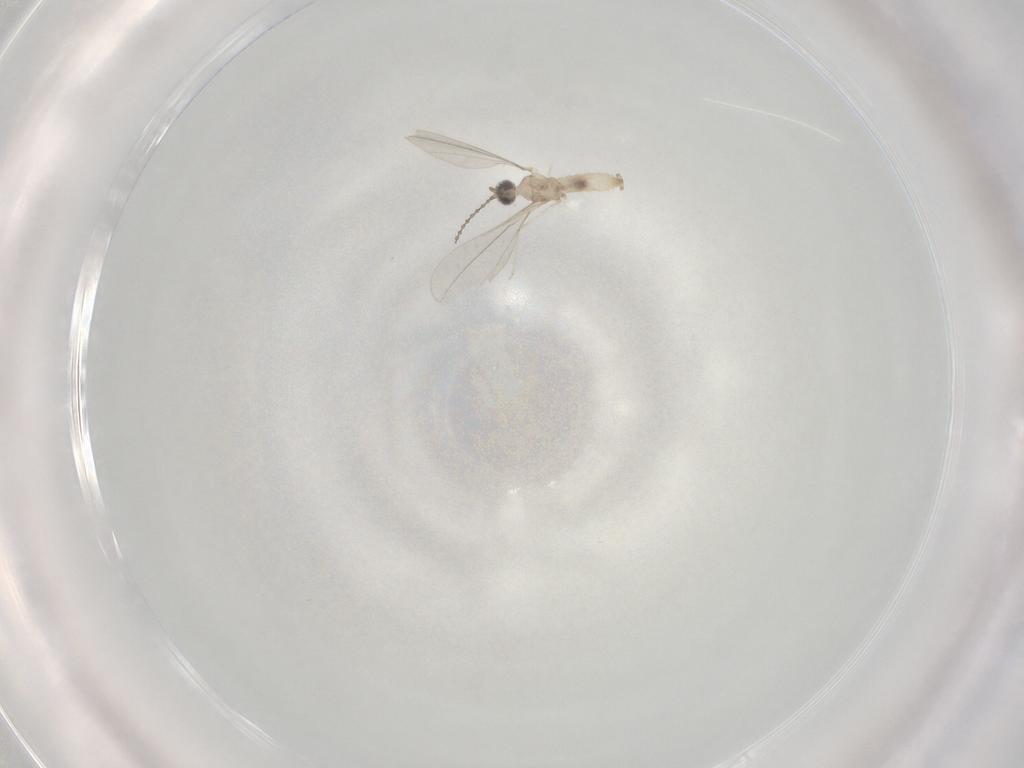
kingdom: Animalia
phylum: Arthropoda
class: Insecta
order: Diptera
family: Cecidomyiidae
